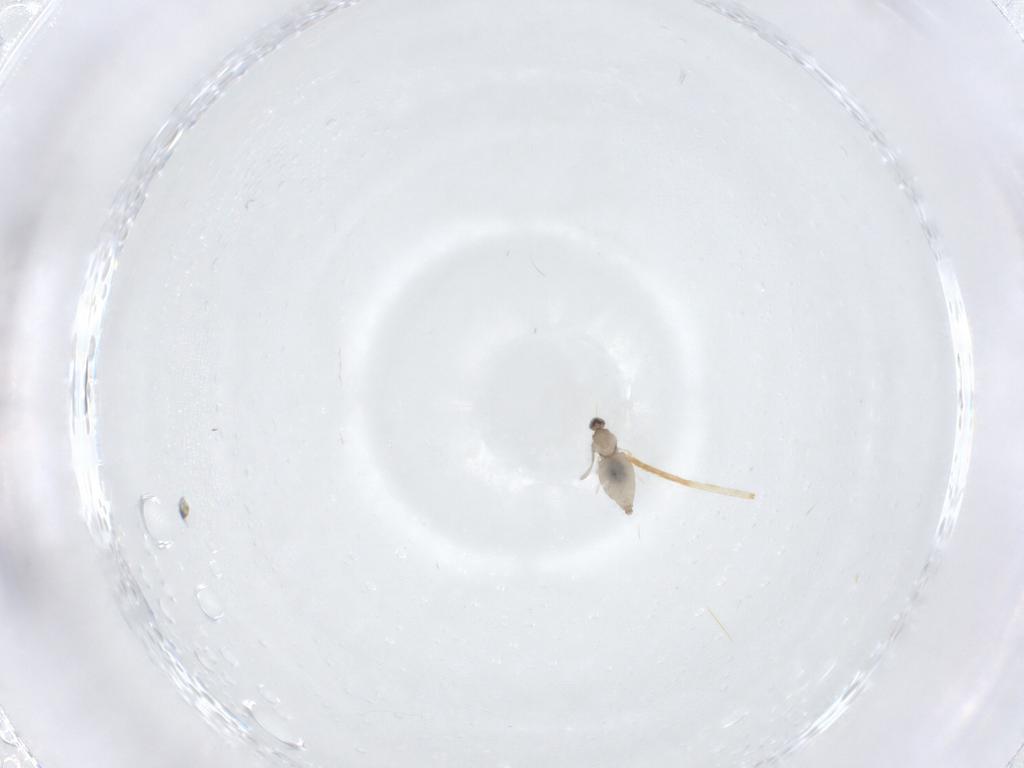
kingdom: Animalia
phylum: Arthropoda
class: Insecta
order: Diptera
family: Cecidomyiidae
